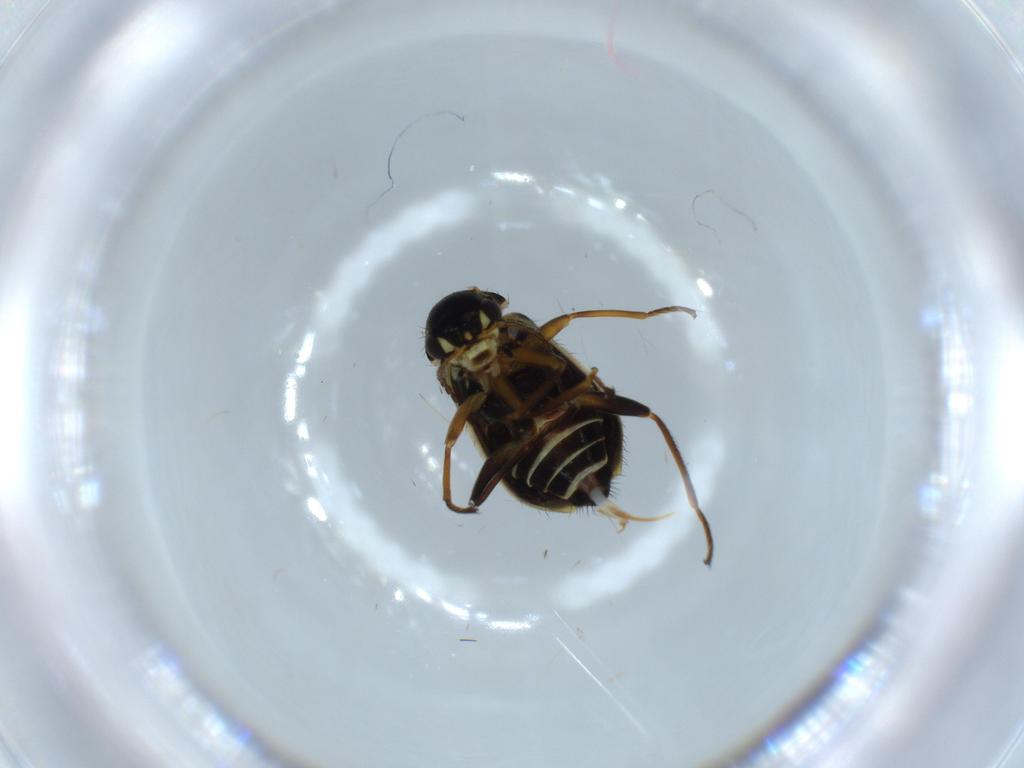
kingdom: Animalia
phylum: Arthropoda
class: Insecta
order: Coleoptera
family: Melyridae
